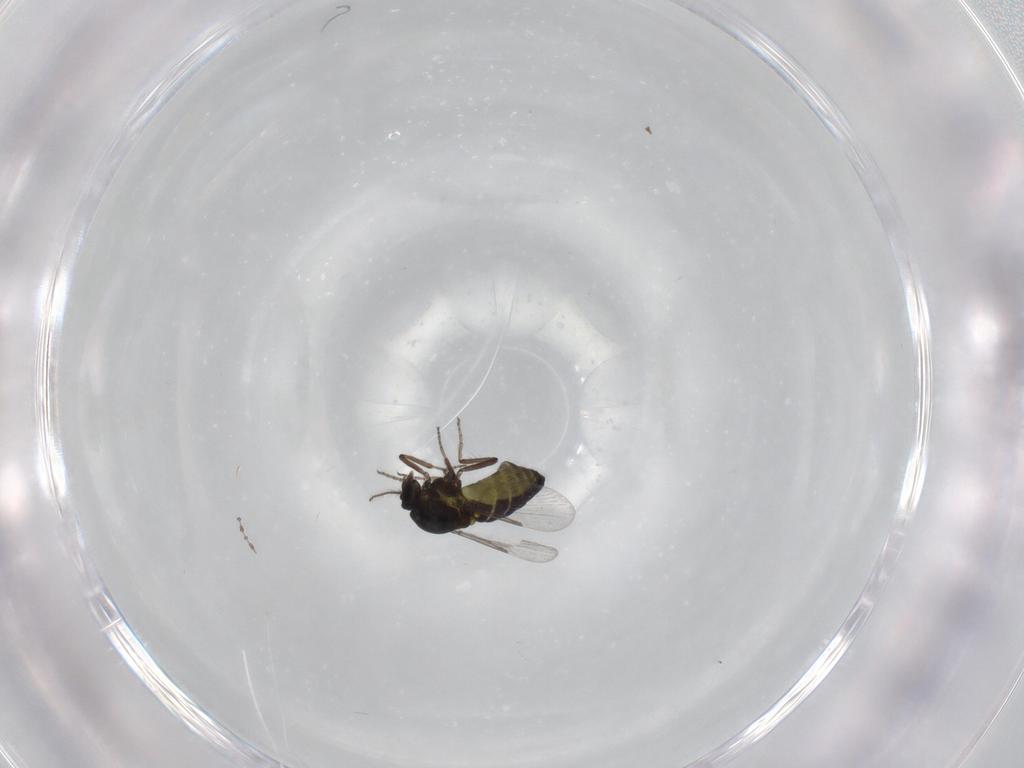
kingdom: Animalia
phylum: Arthropoda
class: Insecta
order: Diptera
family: Ceratopogonidae
